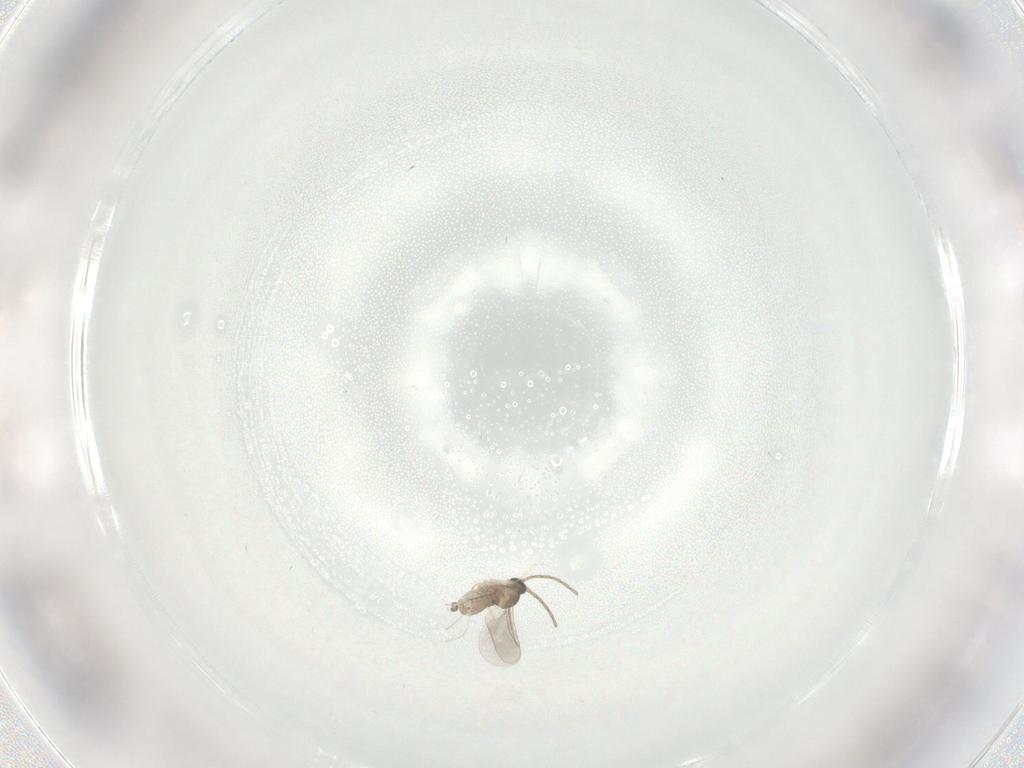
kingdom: Animalia
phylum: Arthropoda
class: Insecta
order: Diptera
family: Cecidomyiidae
